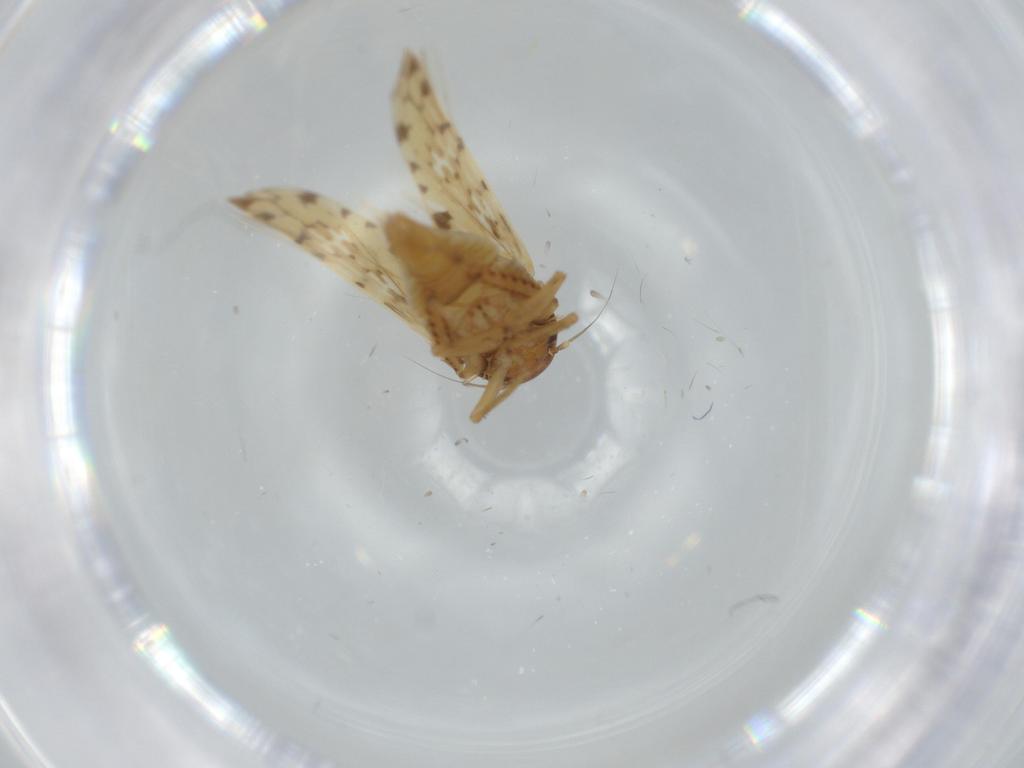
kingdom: Animalia
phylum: Arthropoda
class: Insecta
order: Hemiptera
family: Cicadellidae
